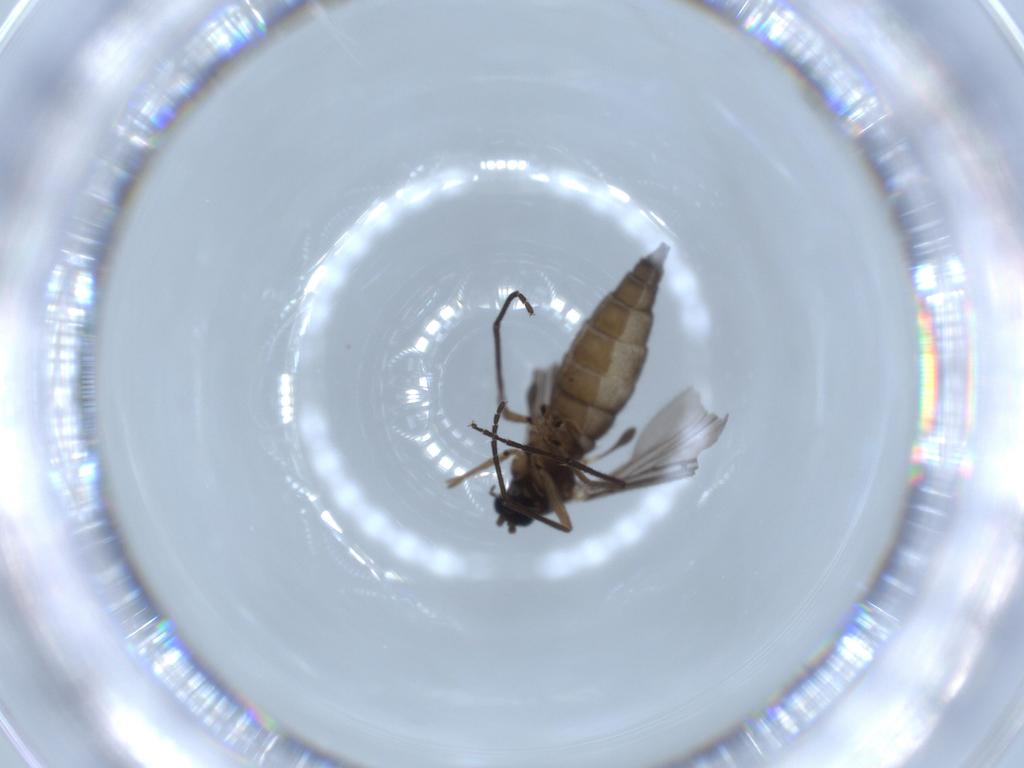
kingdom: Animalia
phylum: Arthropoda
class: Insecta
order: Diptera
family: Sciaridae
